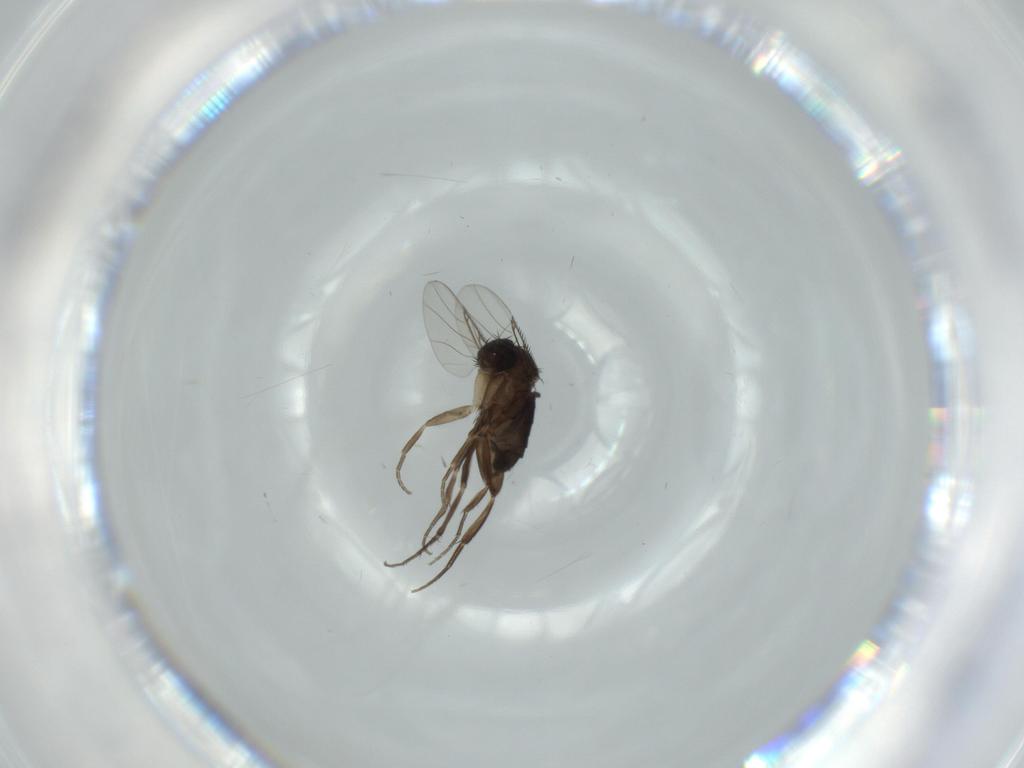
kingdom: Animalia
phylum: Arthropoda
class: Insecta
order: Diptera
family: Phoridae
